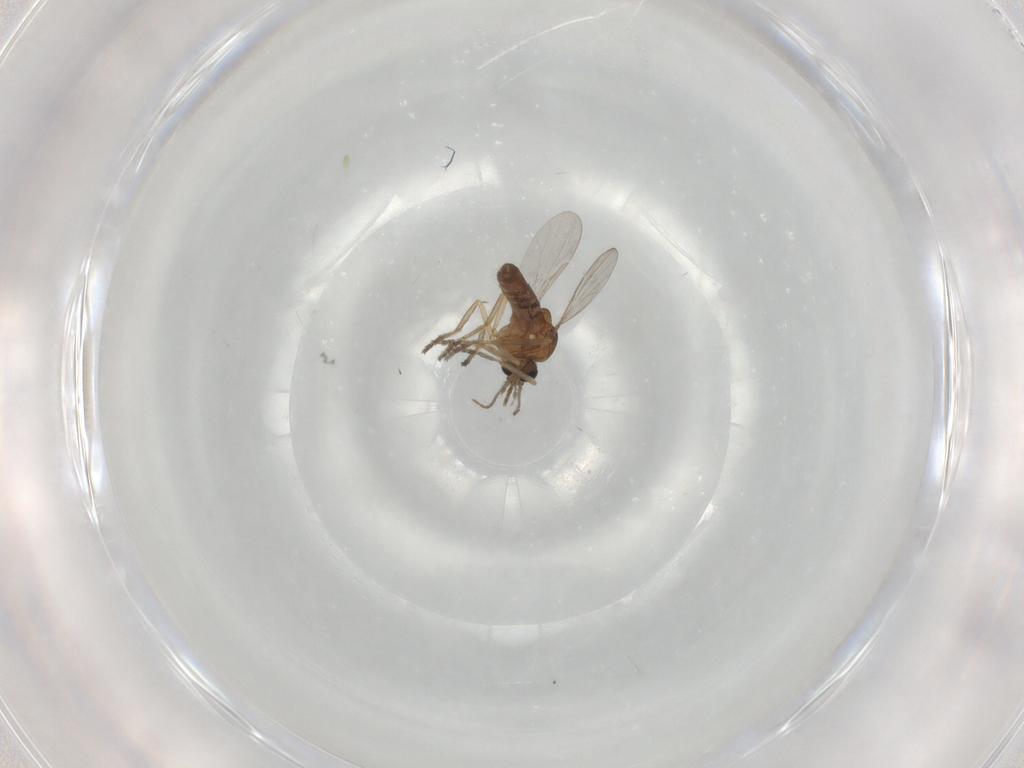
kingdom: Animalia
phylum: Arthropoda
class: Insecta
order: Diptera
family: Ceratopogonidae
